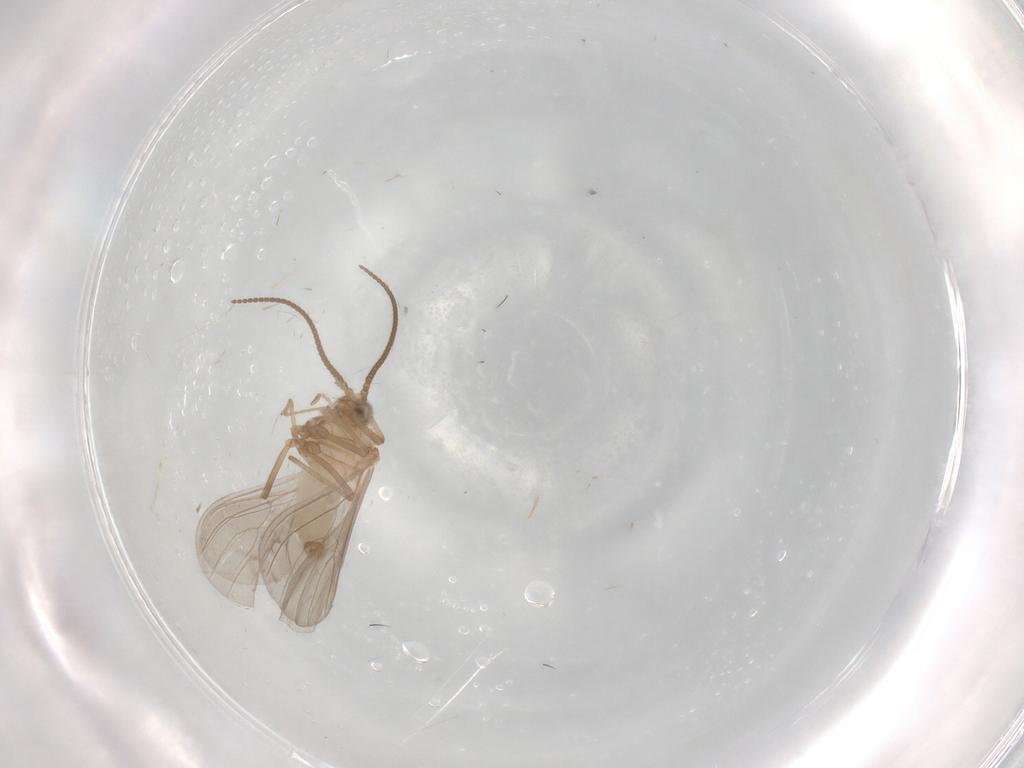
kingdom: Animalia
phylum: Arthropoda
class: Insecta
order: Neuroptera
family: Coniopterygidae
